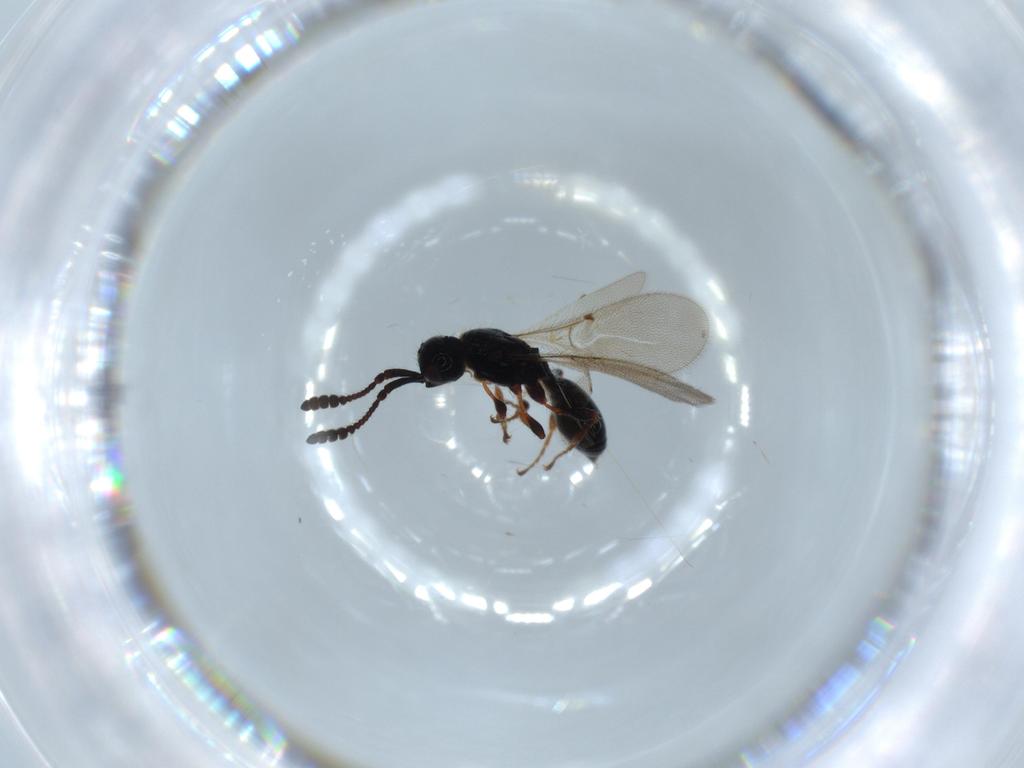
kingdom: Animalia
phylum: Arthropoda
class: Insecta
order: Hymenoptera
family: Diapriidae
